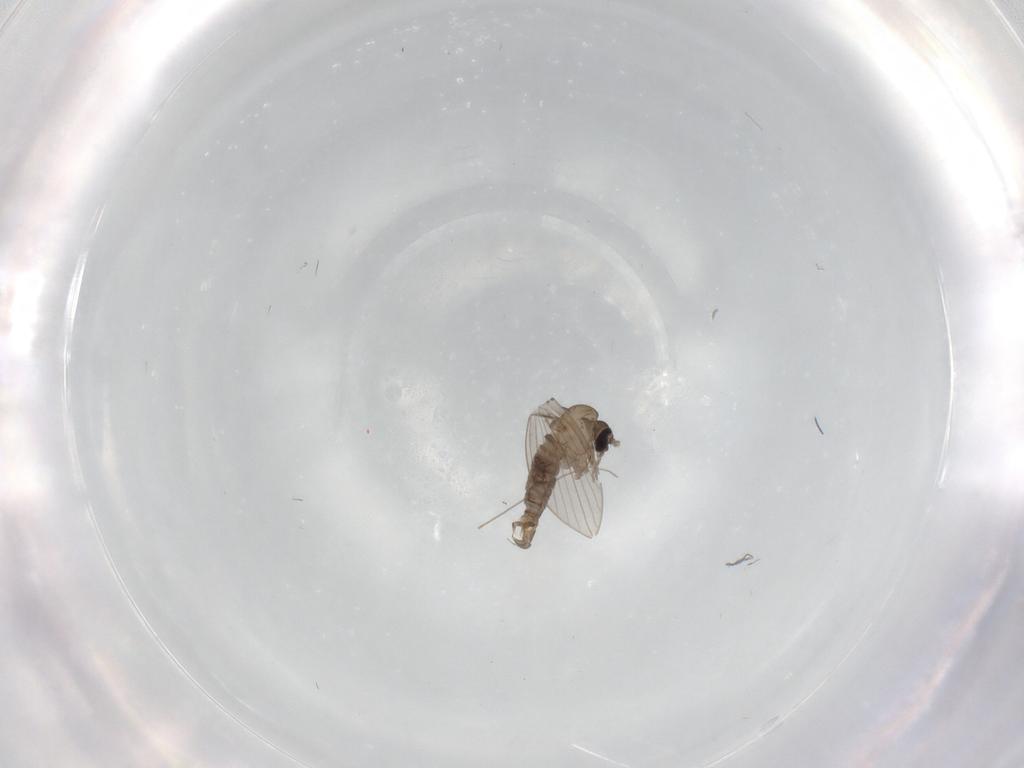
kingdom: Animalia
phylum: Arthropoda
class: Insecta
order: Diptera
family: Psychodidae
